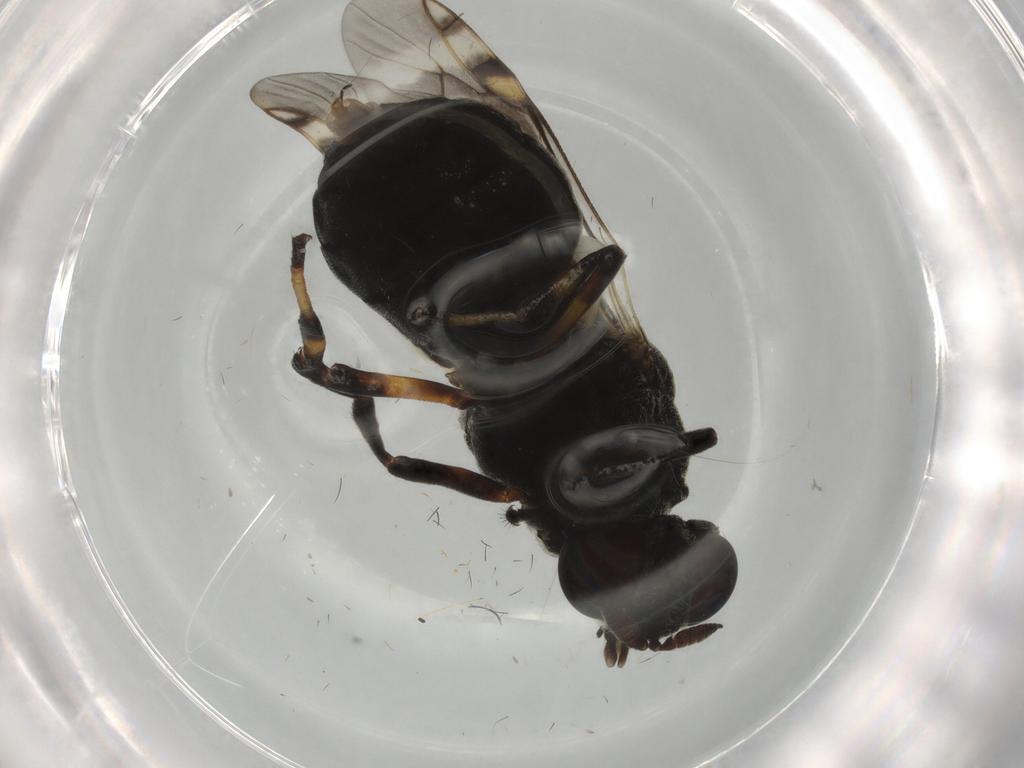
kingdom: Animalia
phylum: Arthropoda
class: Insecta
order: Diptera
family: Stratiomyidae
